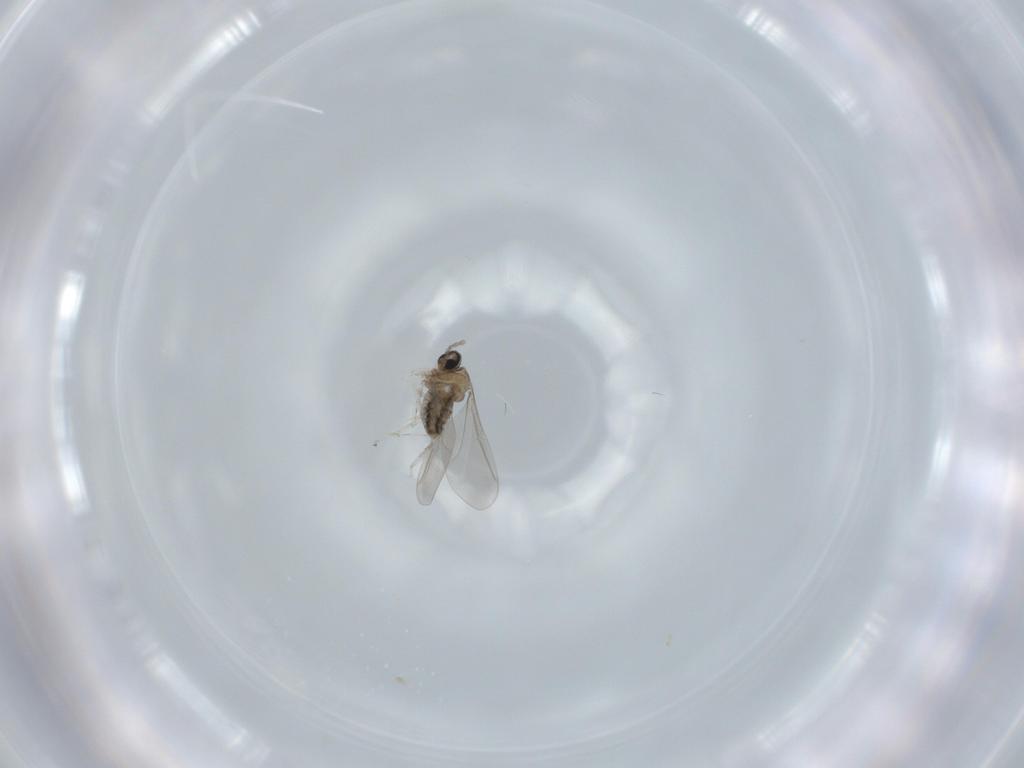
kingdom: Animalia
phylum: Arthropoda
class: Insecta
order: Diptera
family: Cecidomyiidae
